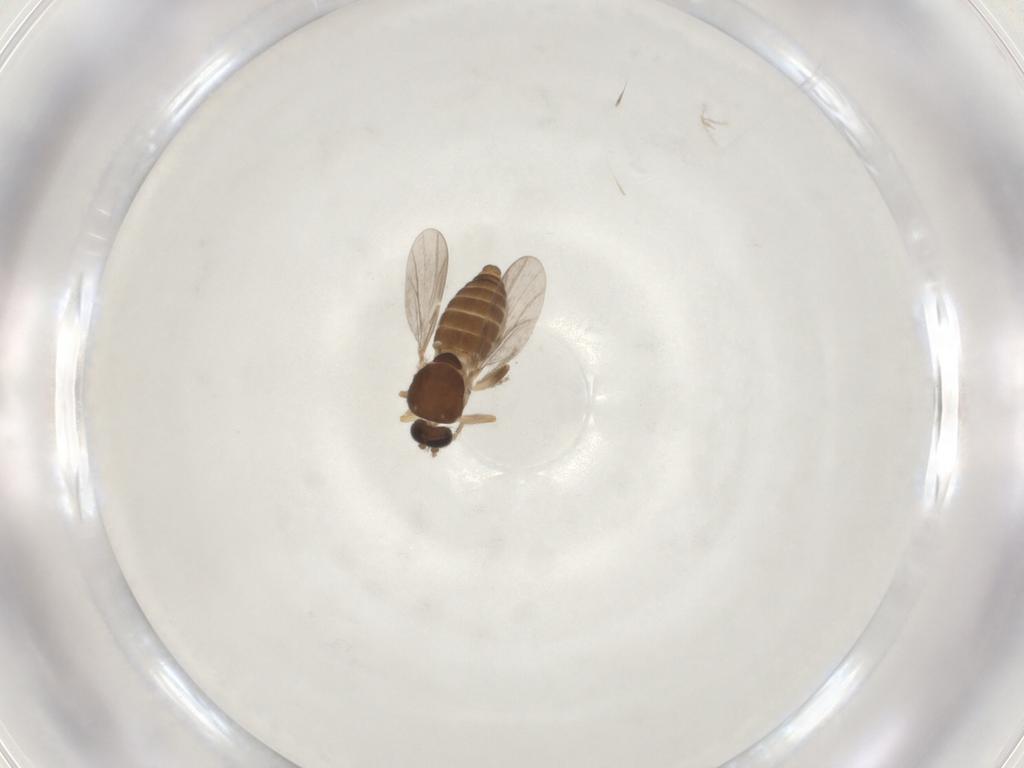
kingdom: Animalia
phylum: Arthropoda
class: Insecta
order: Diptera
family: Ceratopogonidae
